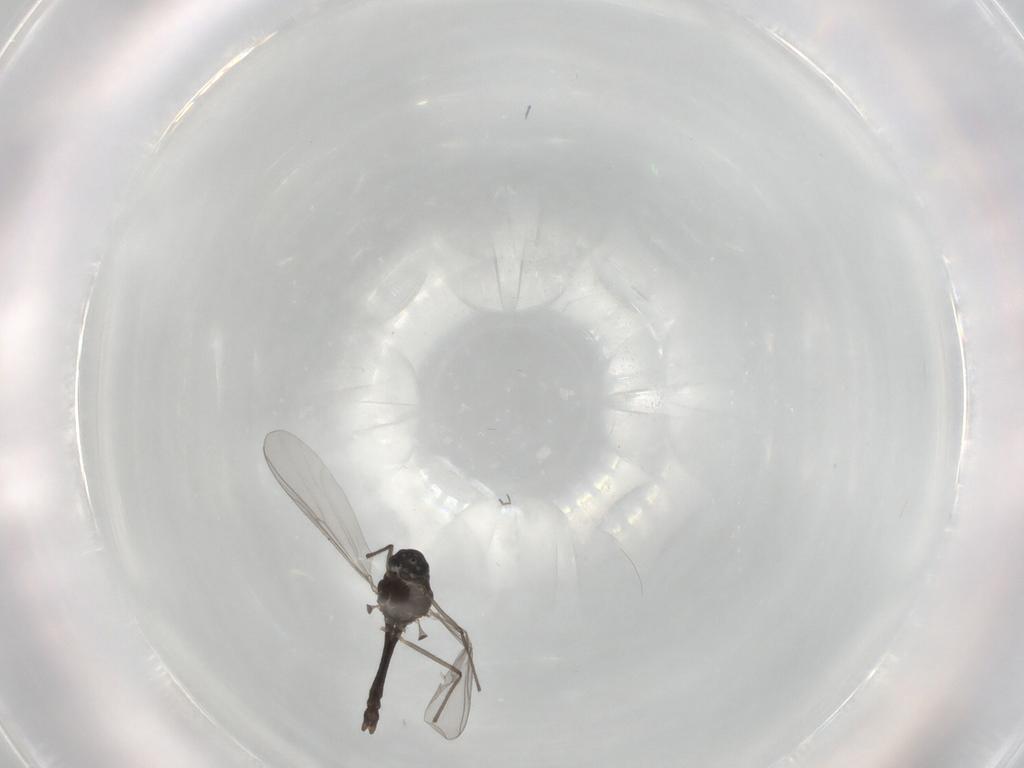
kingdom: Animalia
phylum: Arthropoda
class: Insecta
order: Diptera
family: Chironomidae
